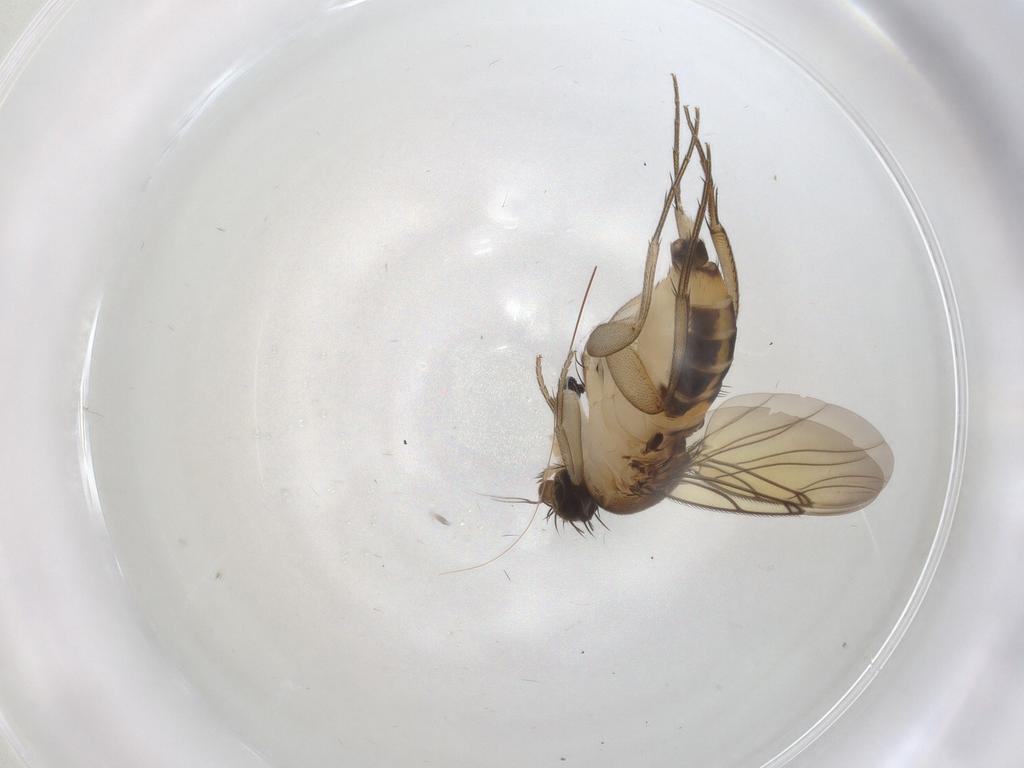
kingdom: Animalia
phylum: Arthropoda
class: Insecta
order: Diptera
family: Phoridae
